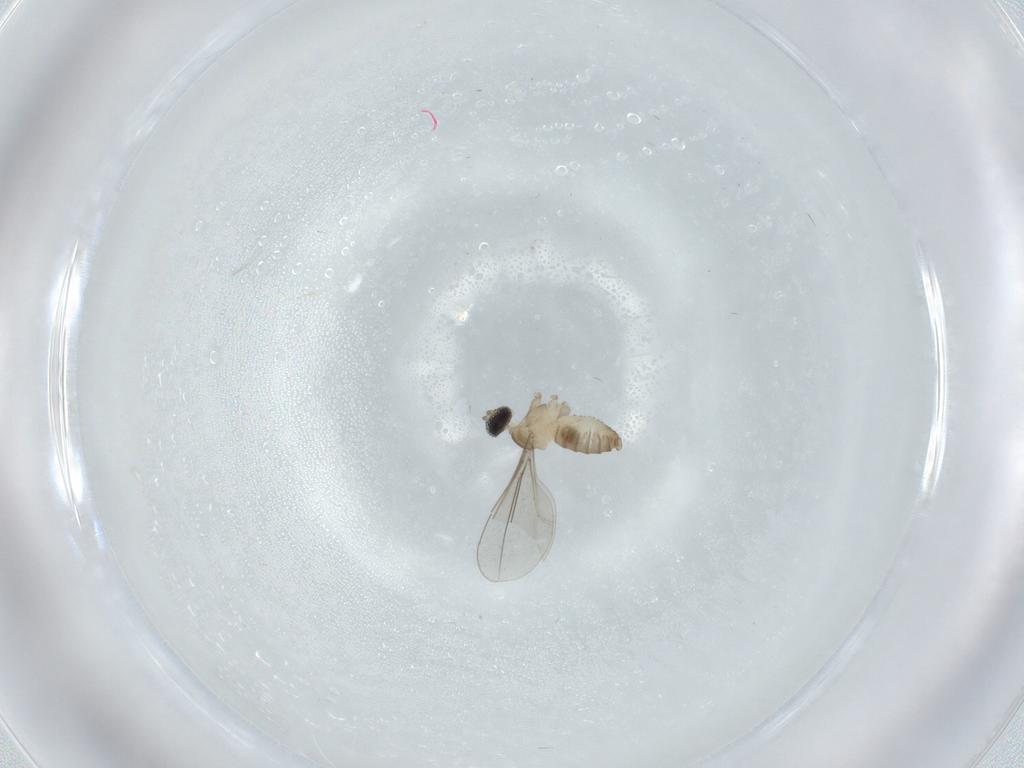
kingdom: Animalia
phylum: Arthropoda
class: Insecta
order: Diptera
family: Cecidomyiidae
